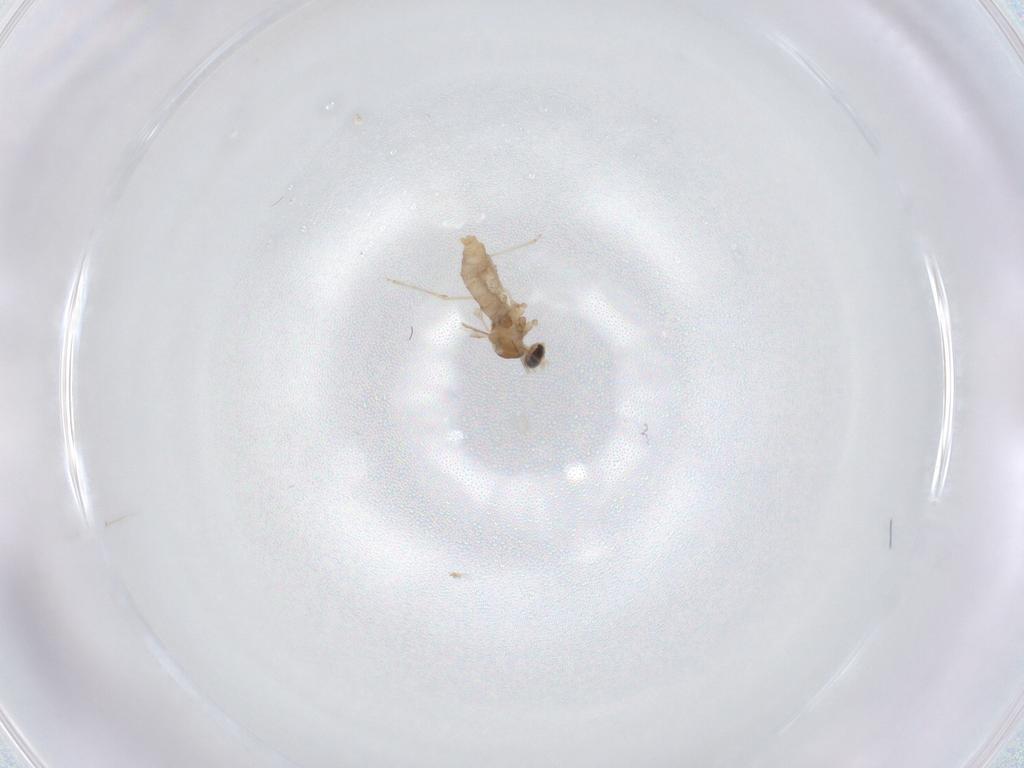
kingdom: Animalia
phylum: Arthropoda
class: Insecta
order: Diptera
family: Cecidomyiidae
